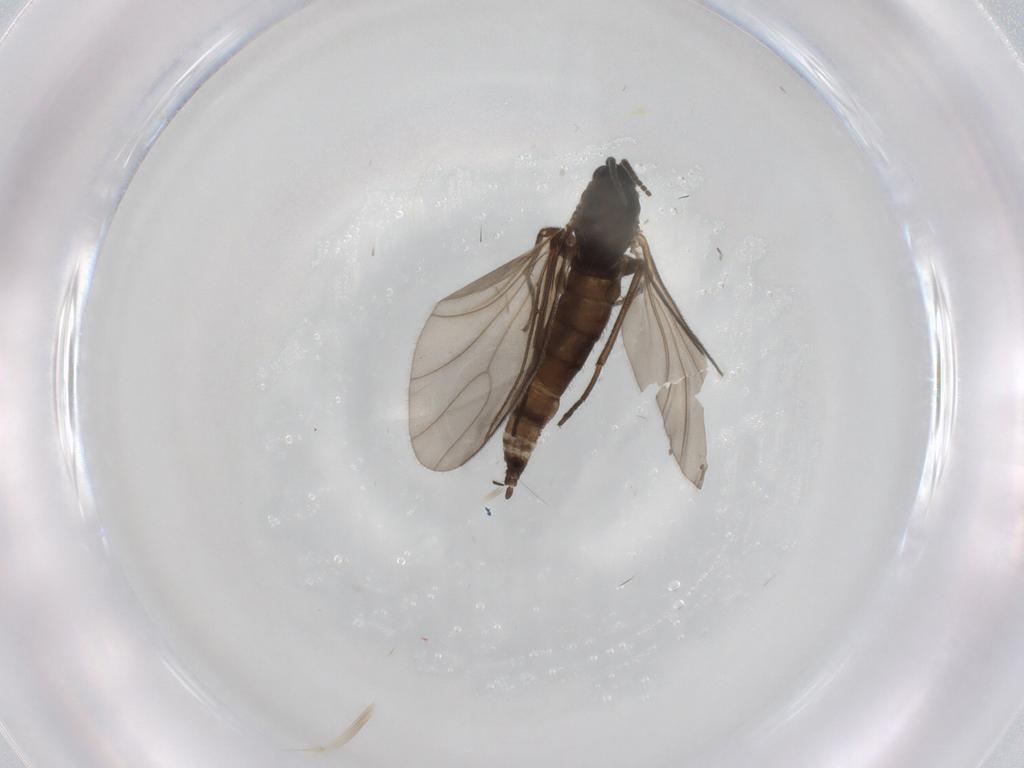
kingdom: Animalia
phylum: Arthropoda
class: Insecta
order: Diptera
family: Sciaridae
